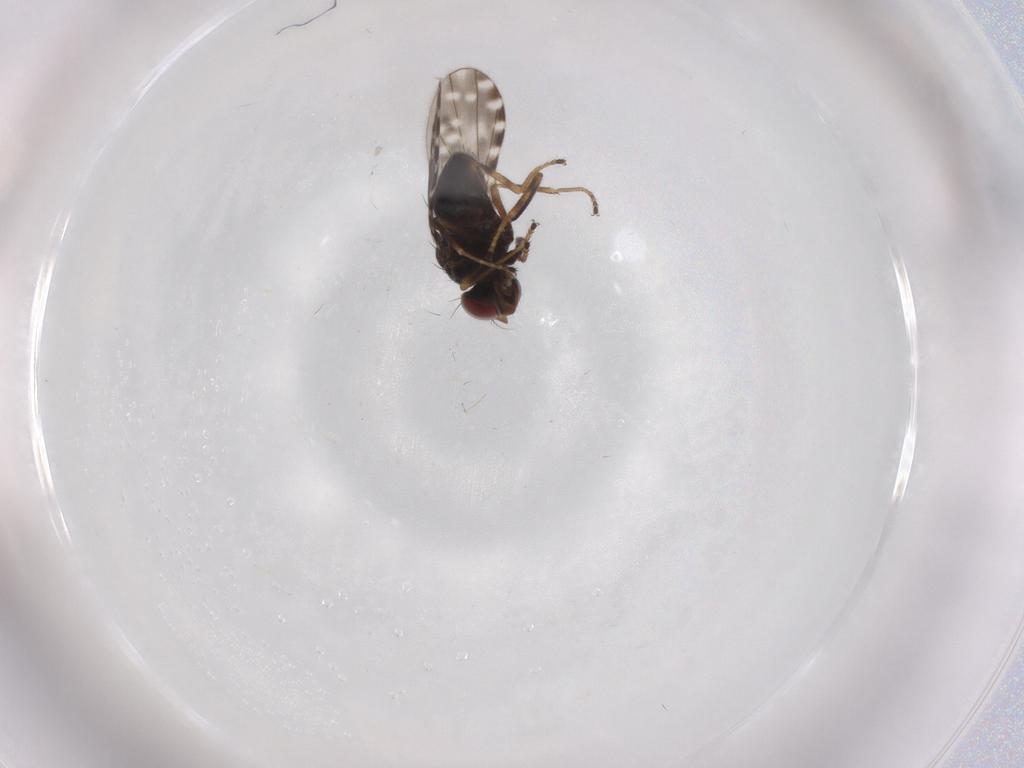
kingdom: Animalia
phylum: Arthropoda
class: Insecta
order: Diptera
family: Ephydridae
